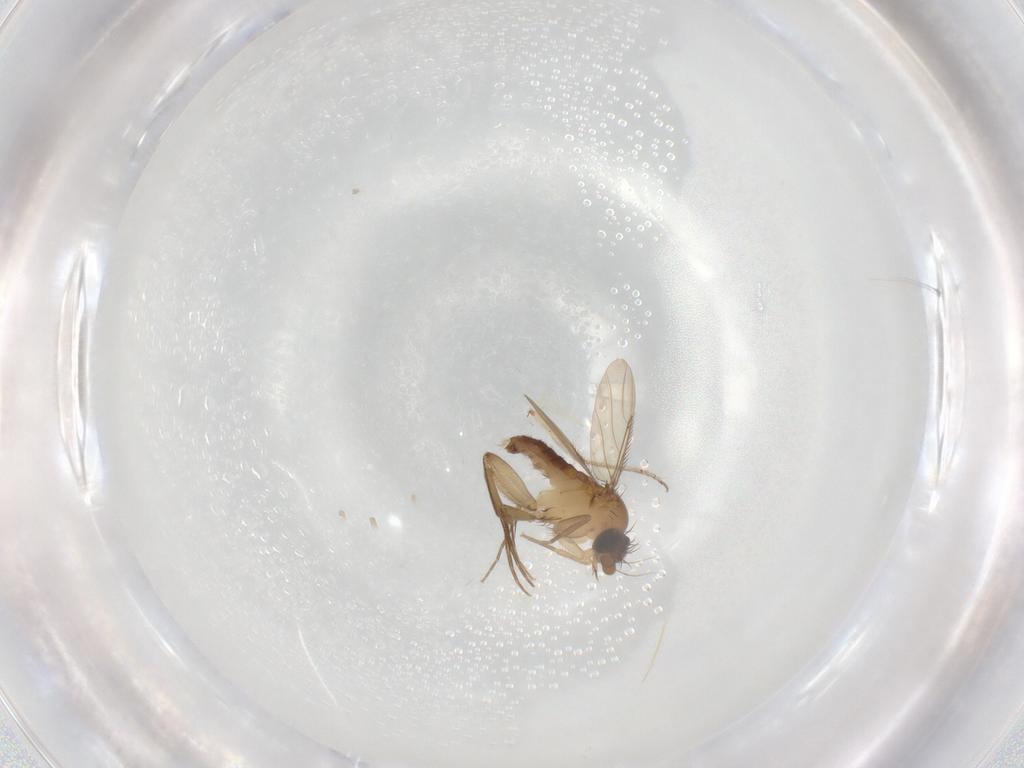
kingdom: Animalia
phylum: Arthropoda
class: Insecta
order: Diptera
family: Phoridae
